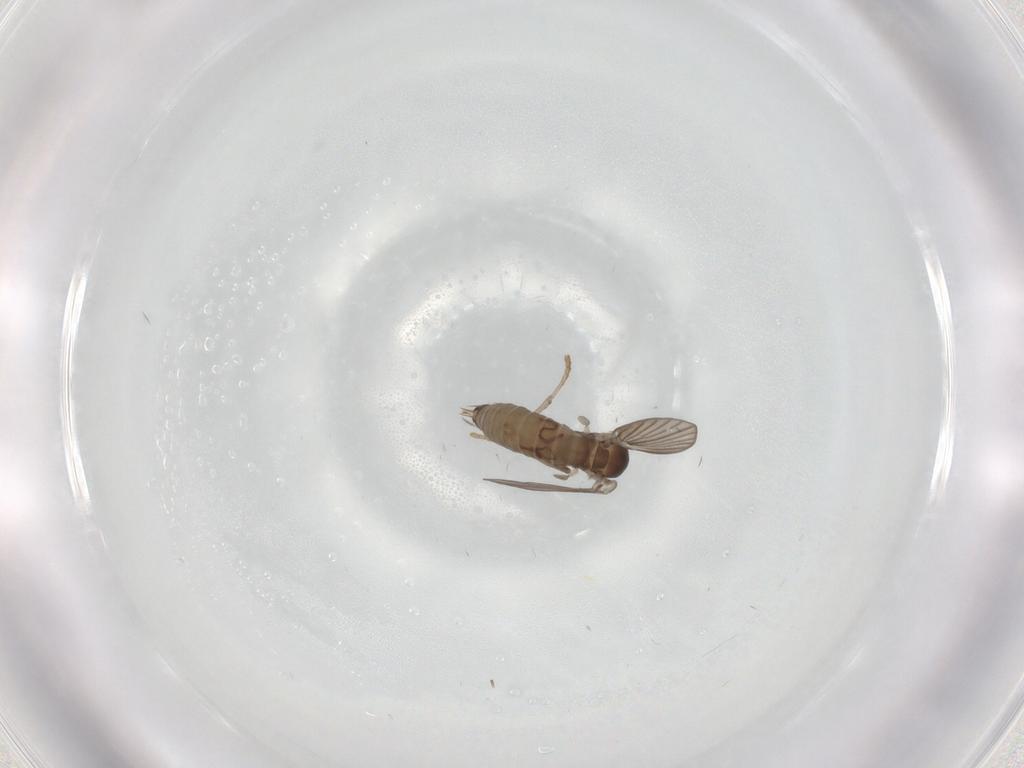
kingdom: Animalia
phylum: Arthropoda
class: Insecta
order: Diptera
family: Psychodidae
